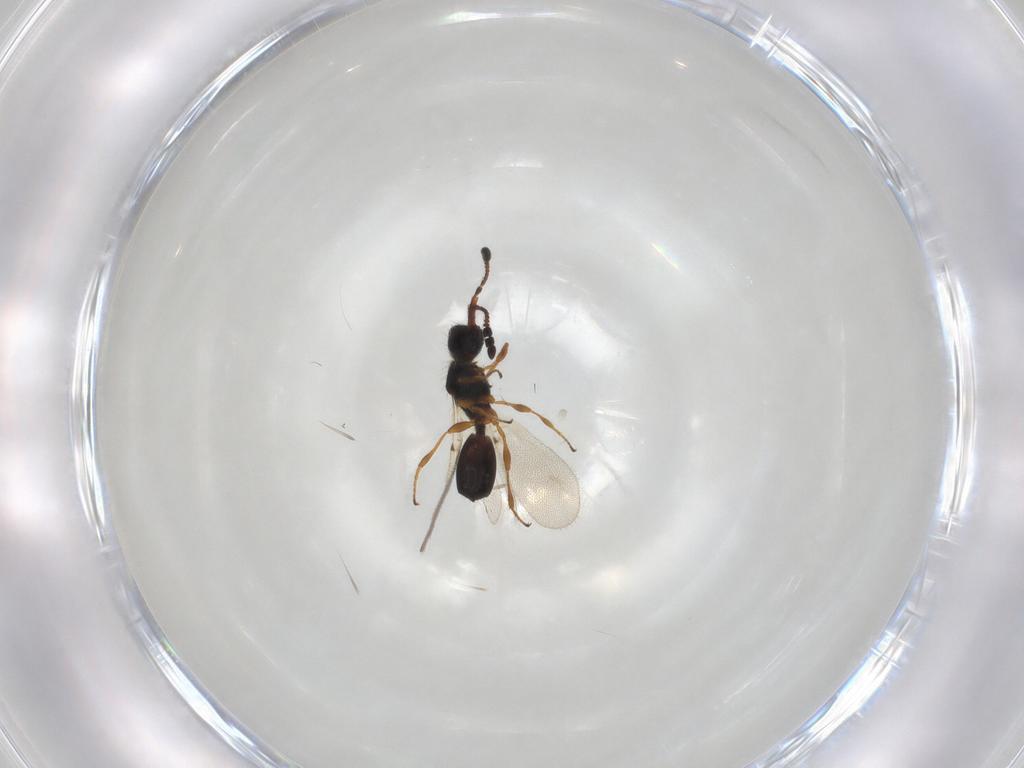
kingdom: Animalia
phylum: Arthropoda
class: Insecta
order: Hymenoptera
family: Diapriidae
